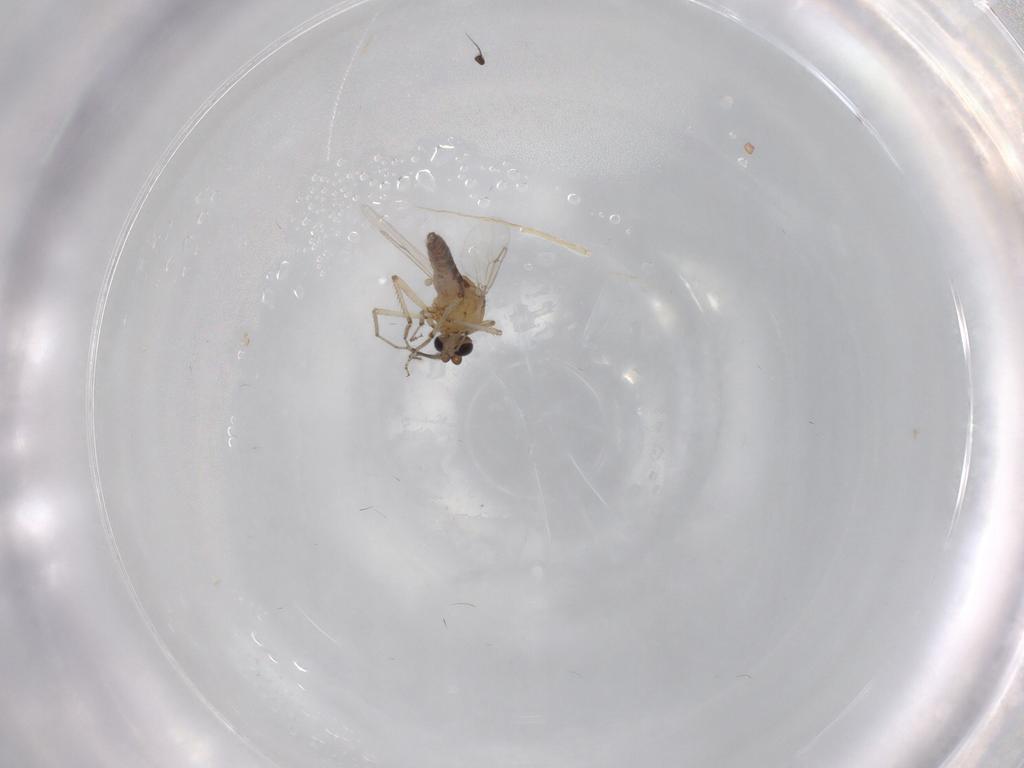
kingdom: Animalia
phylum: Arthropoda
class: Insecta
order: Diptera
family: Ceratopogonidae
